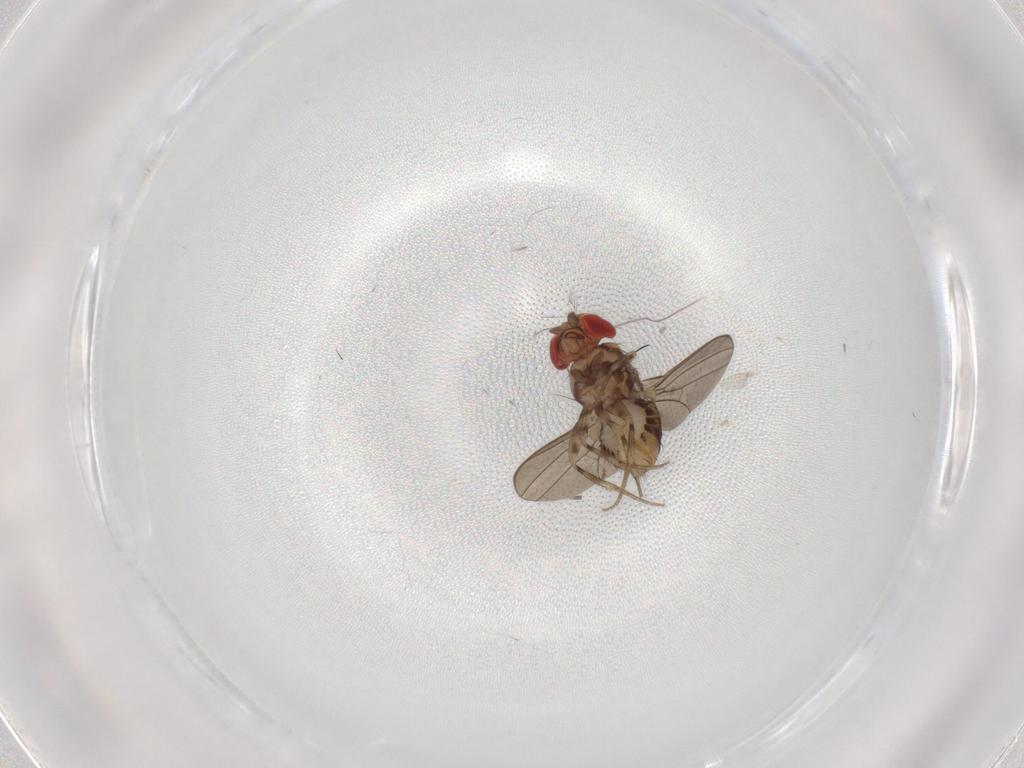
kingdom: Animalia
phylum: Arthropoda
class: Insecta
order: Diptera
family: Drosophilidae
